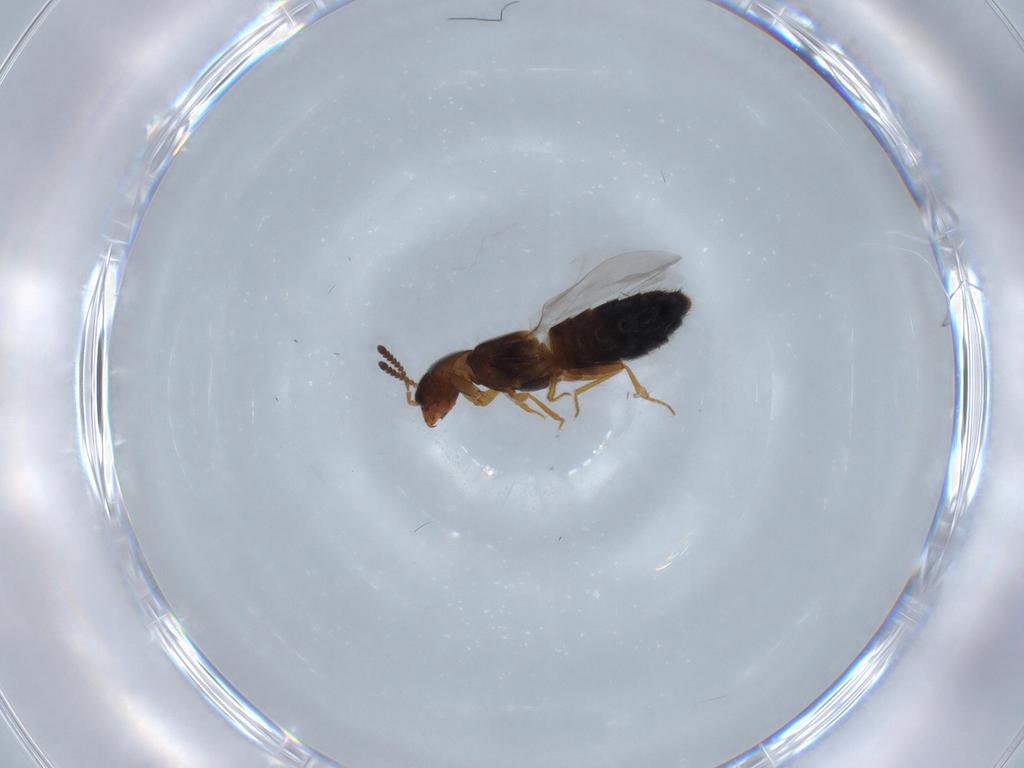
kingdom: Animalia
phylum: Arthropoda
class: Insecta
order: Coleoptera
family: Staphylinidae
